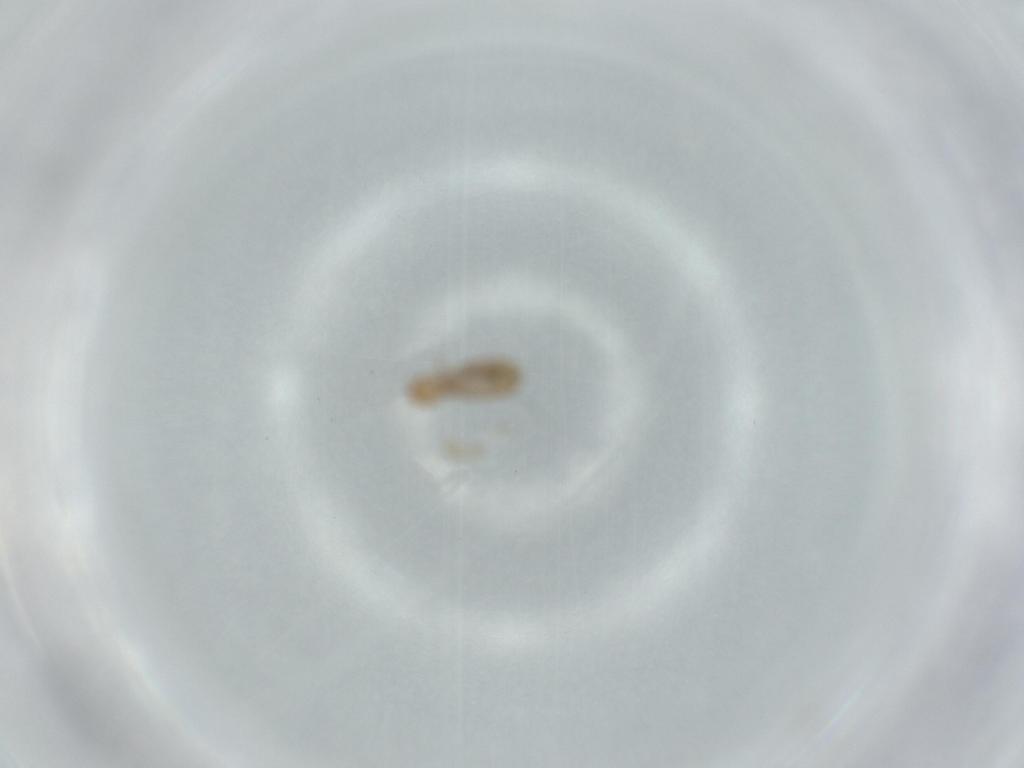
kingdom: Animalia
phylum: Arthropoda
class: Insecta
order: Psocodea
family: Liposcelididae
